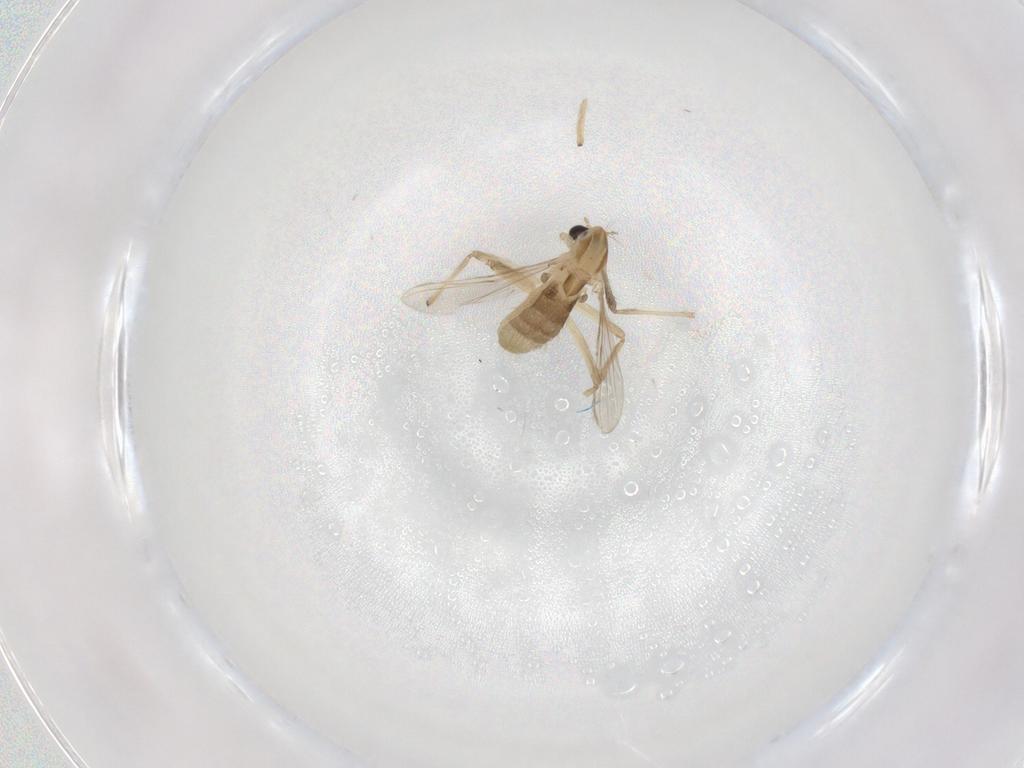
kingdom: Animalia
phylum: Arthropoda
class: Insecta
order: Diptera
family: Chironomidae
